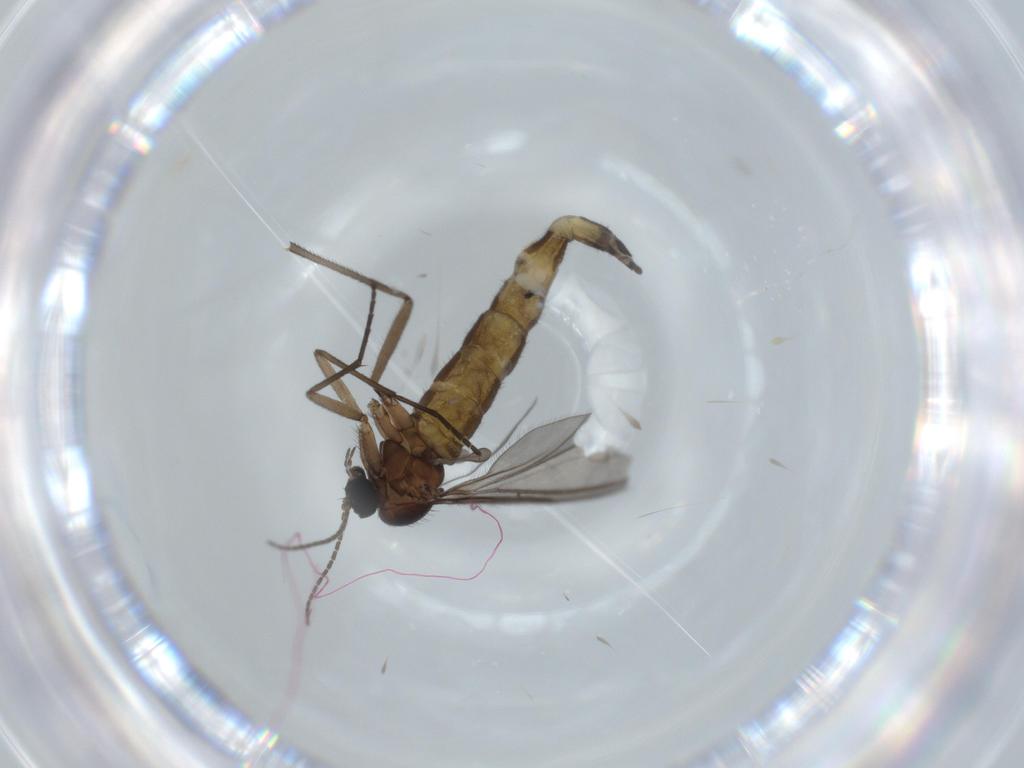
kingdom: Animalia
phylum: Arthropoda
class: Insecta
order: Diptera
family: Sciaridae
